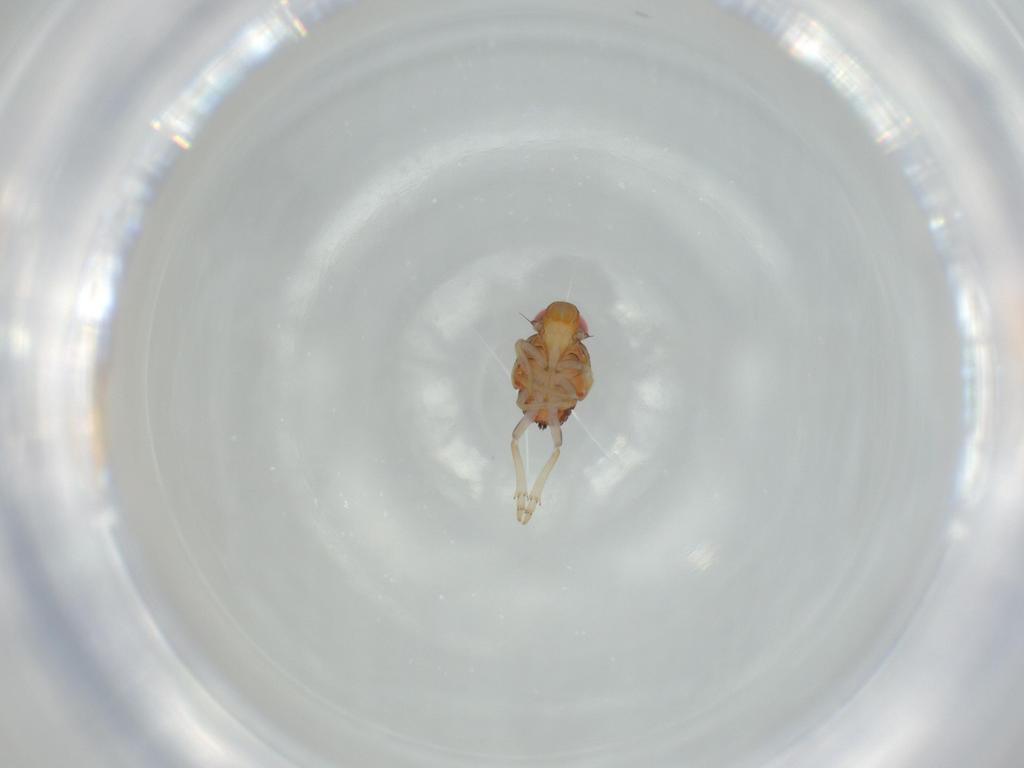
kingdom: Animalia
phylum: Arthropoda
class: Insecta
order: Hemiptera
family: Issidae
